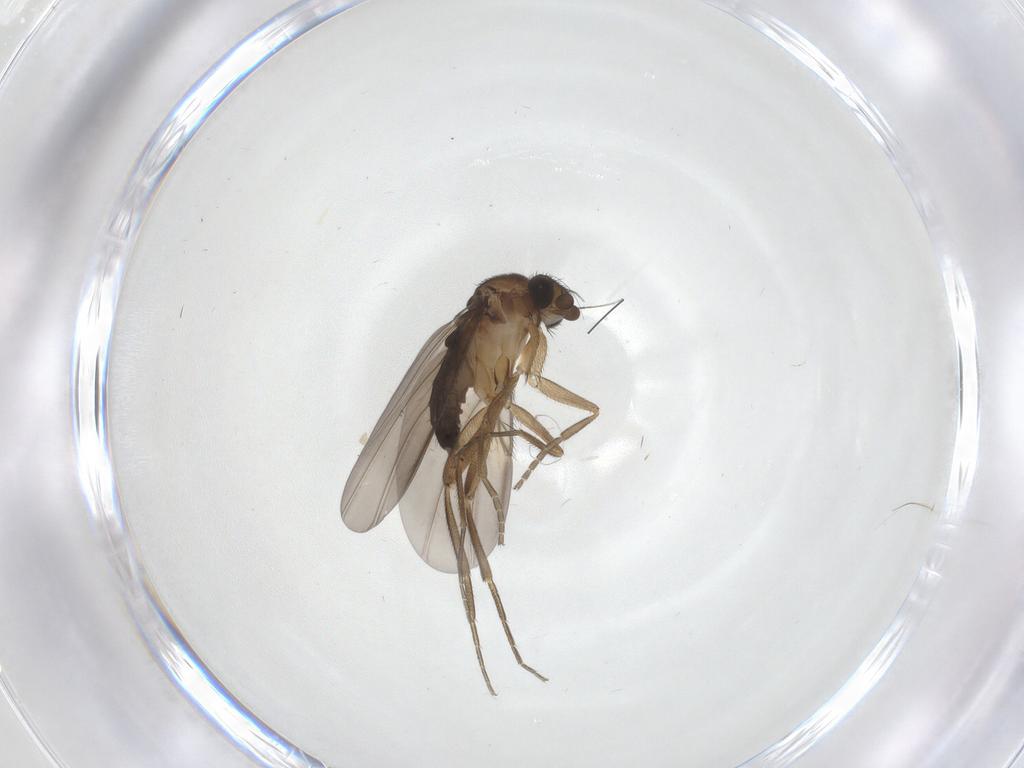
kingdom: Animalia
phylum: Arthropoda
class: Insecta
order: Diptera
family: Phoridae
